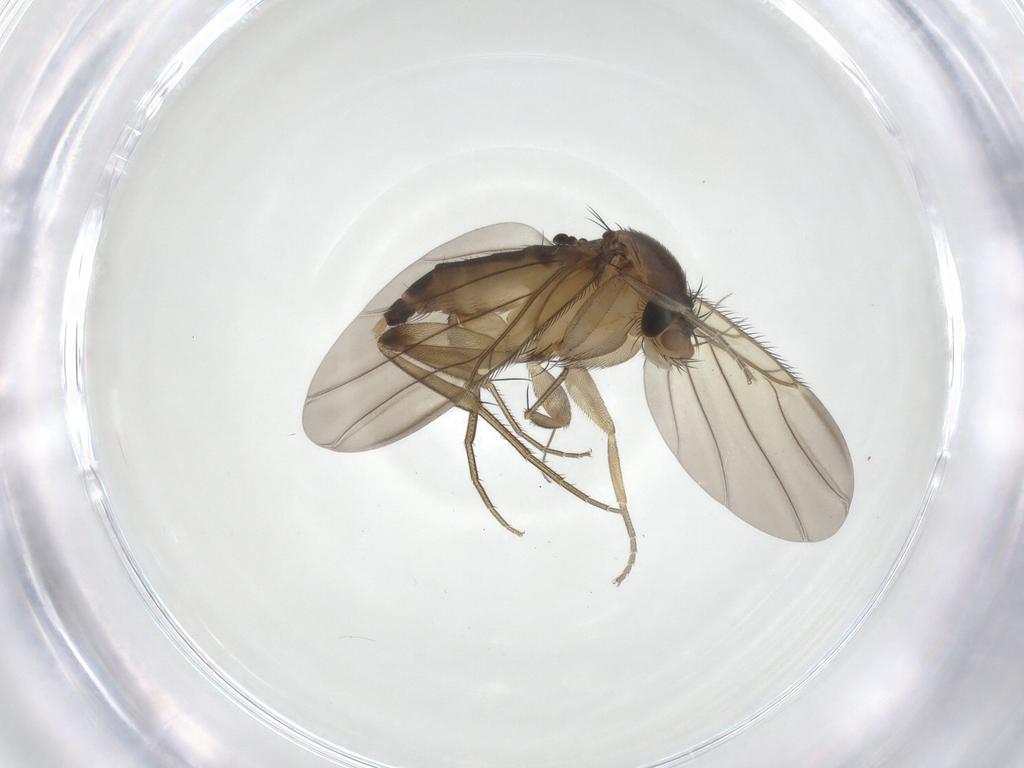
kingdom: Animalia
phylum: Arthropoda
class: Insecta
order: Diptera
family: Phoridae
